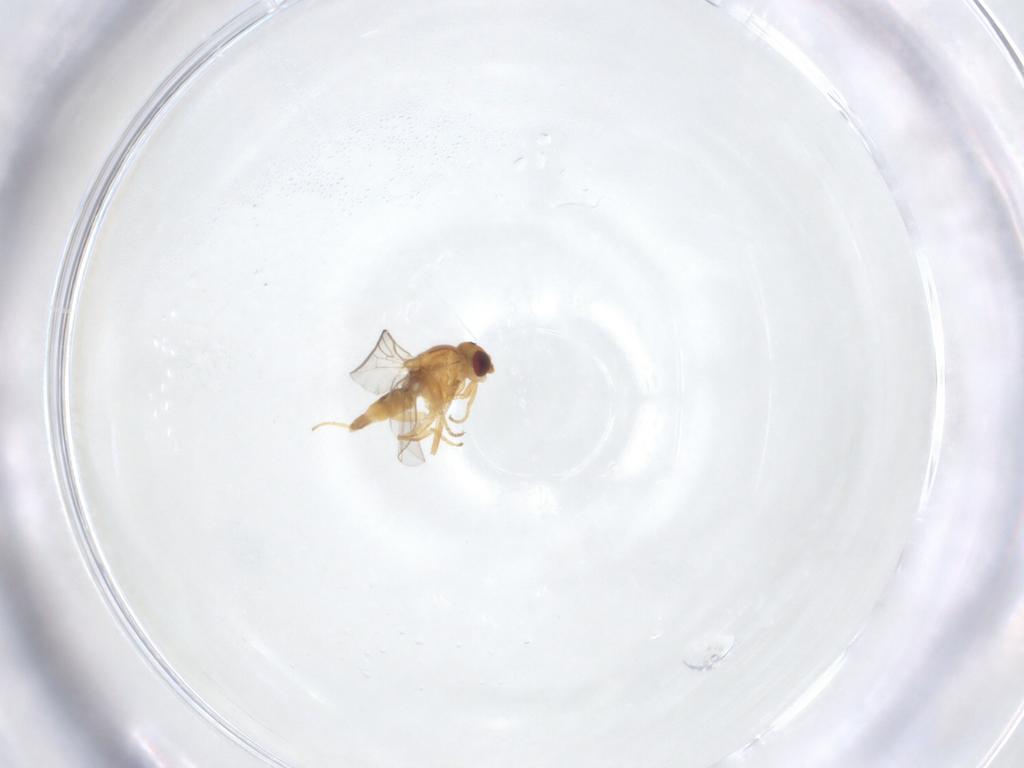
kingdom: Animalia
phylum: Arthropoda
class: Insecta
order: Diptera
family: Chloropidae
